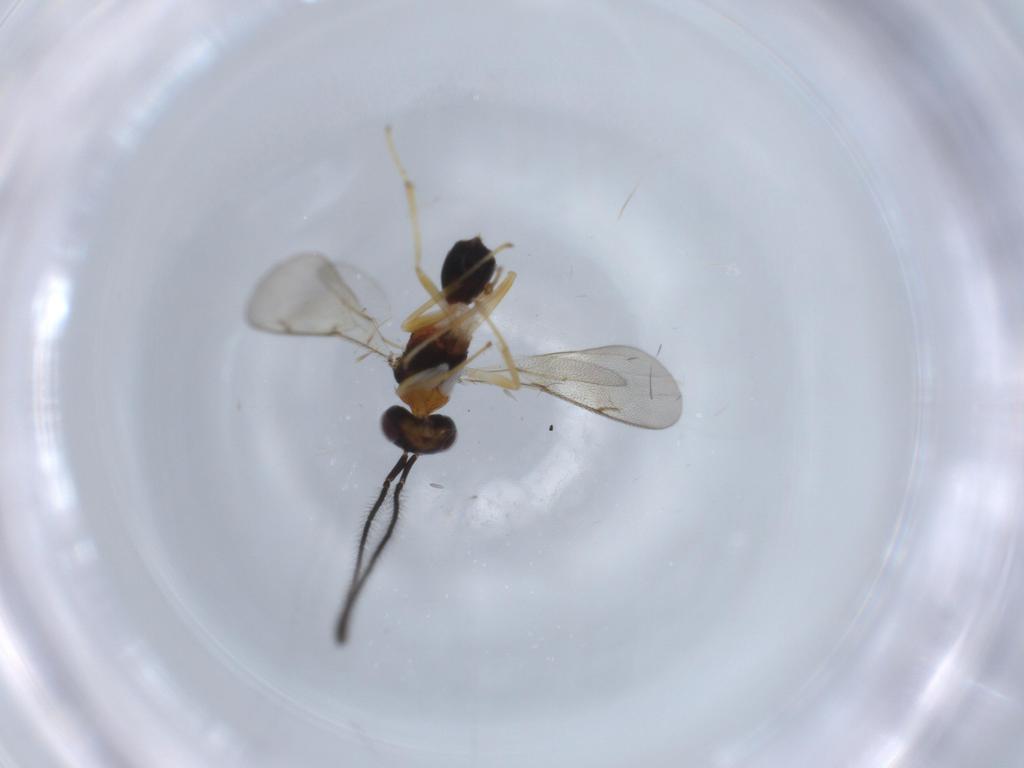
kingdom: Animalia
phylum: Arthropoda
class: Insecta
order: Hymenoptera
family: Diparidae
